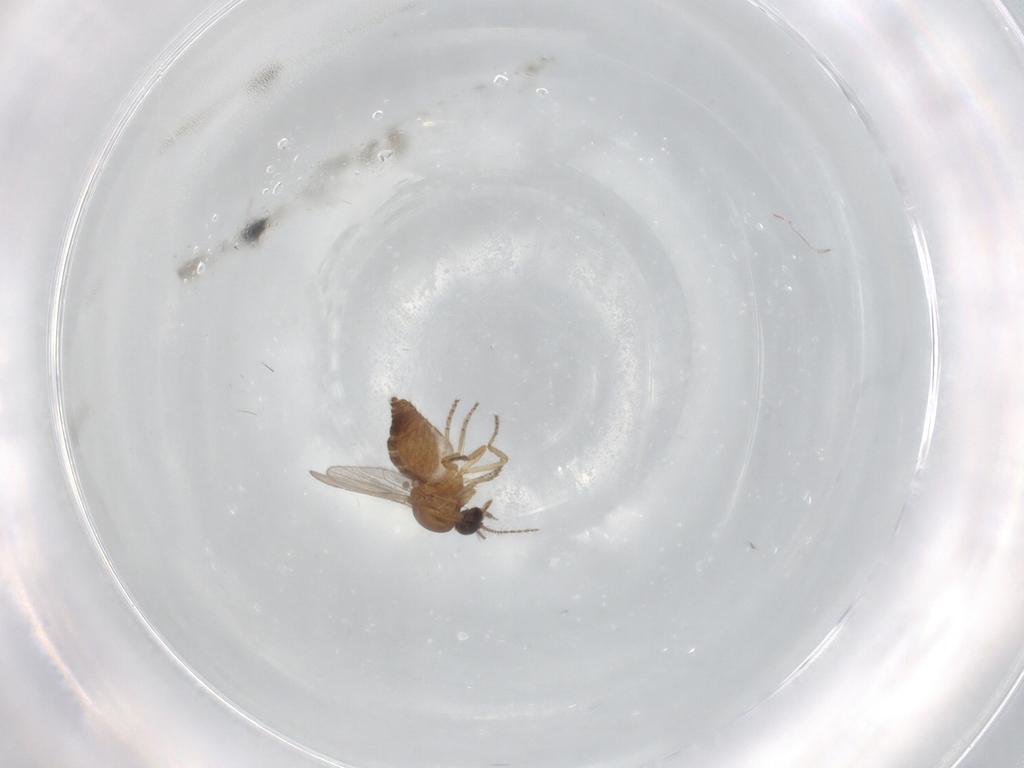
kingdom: Animalia
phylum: Arthropoda
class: Insecta
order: Diptera
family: Ceratopogonidae
